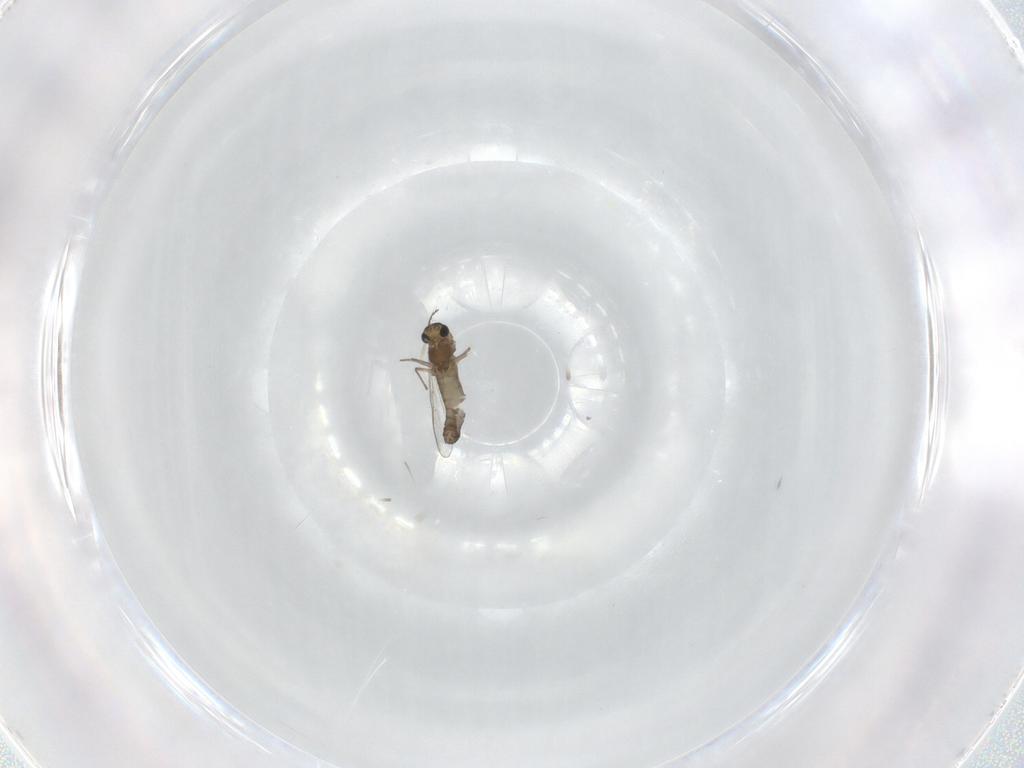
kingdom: Animalia
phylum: Arthropoda
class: Insecta
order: Diptera
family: Chironomidae
